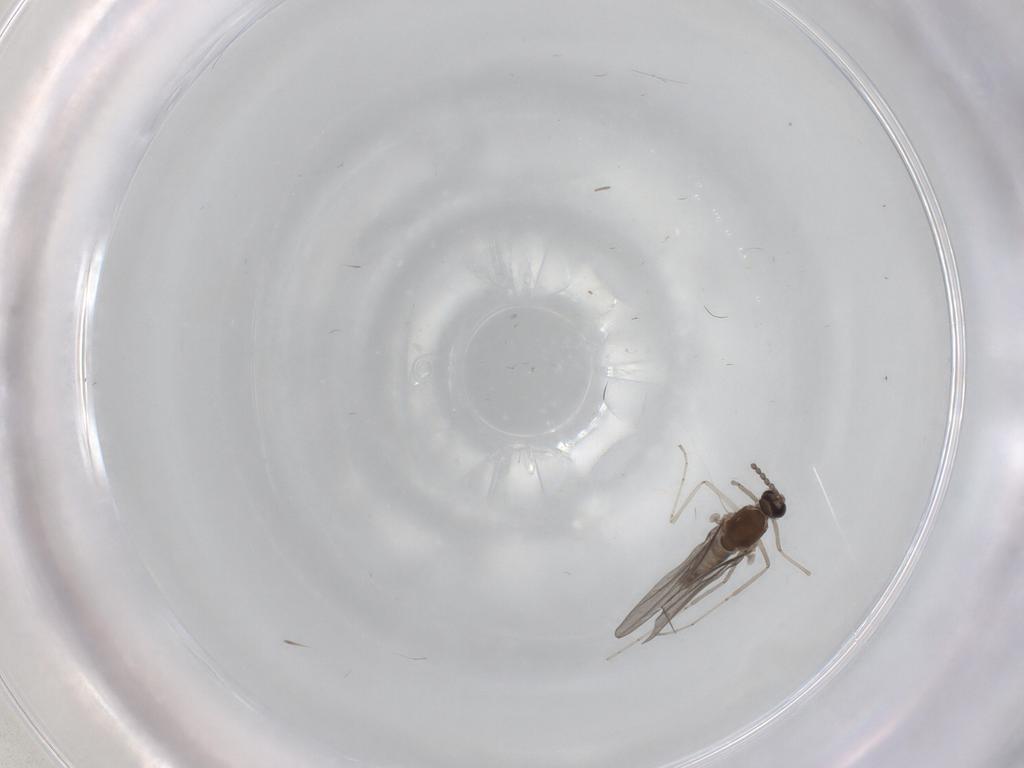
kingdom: Animalia
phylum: Arthropoda
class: Insecta
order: Diptera
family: Cecidomyiidae
